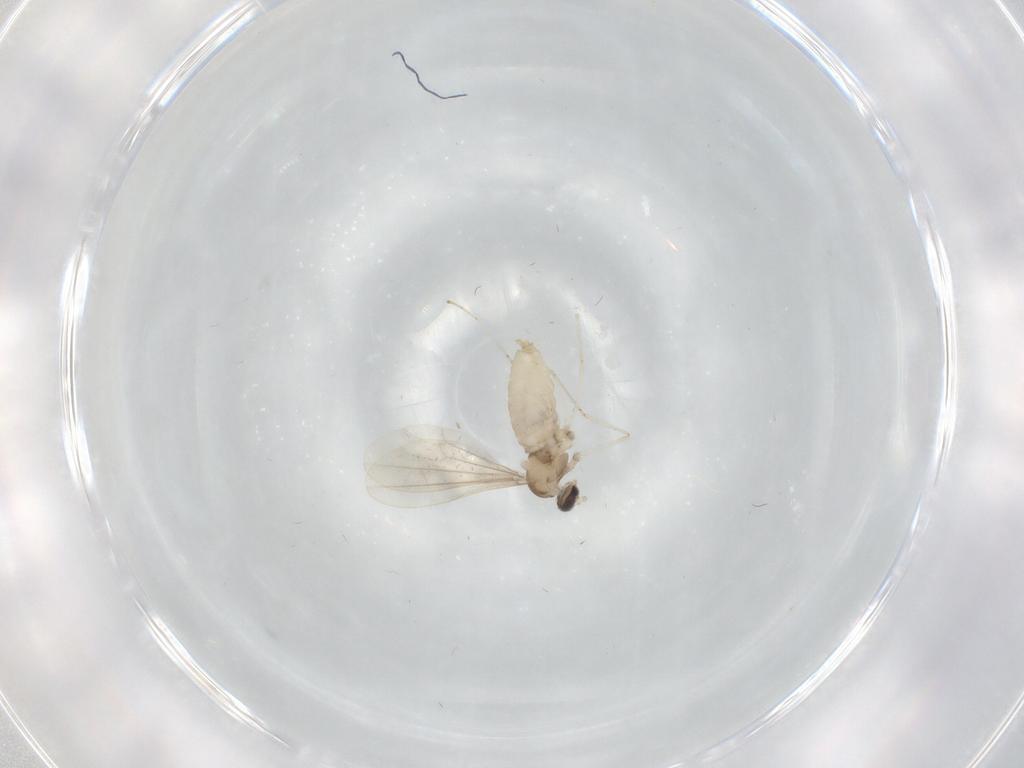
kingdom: Animalia
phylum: Arthropoda
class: Insecta
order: Diptera
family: Cecidomyiidae
